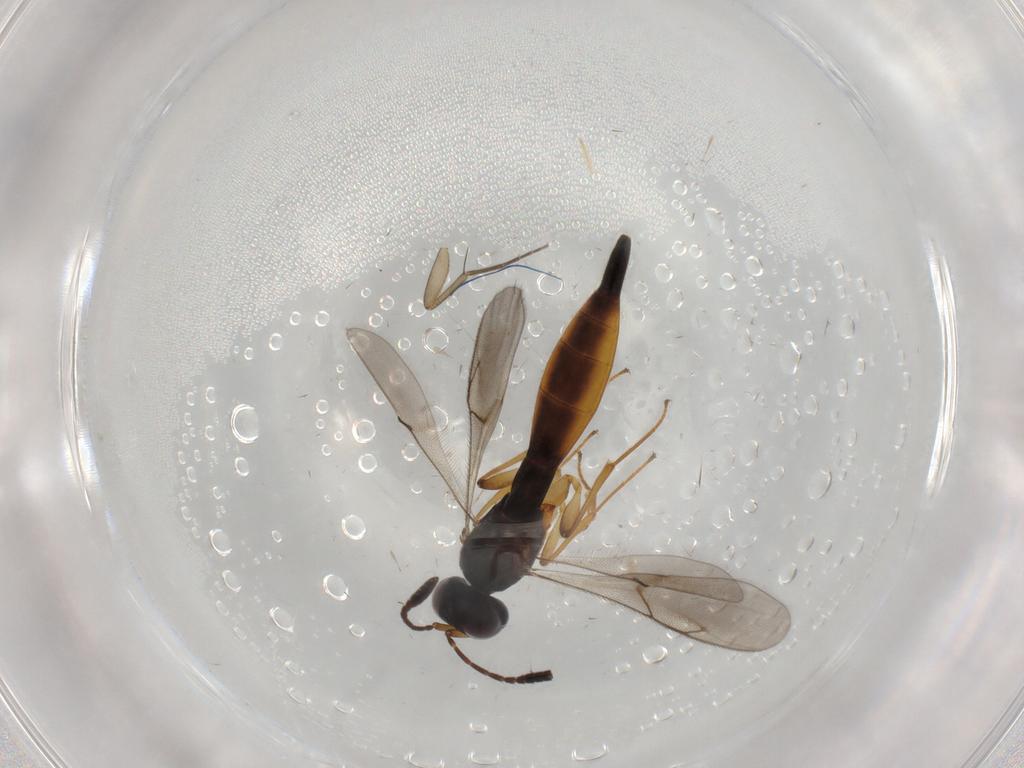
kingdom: Animalia
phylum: Arthropoda
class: Insecta
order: Hymenoptera
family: Scelionidae
